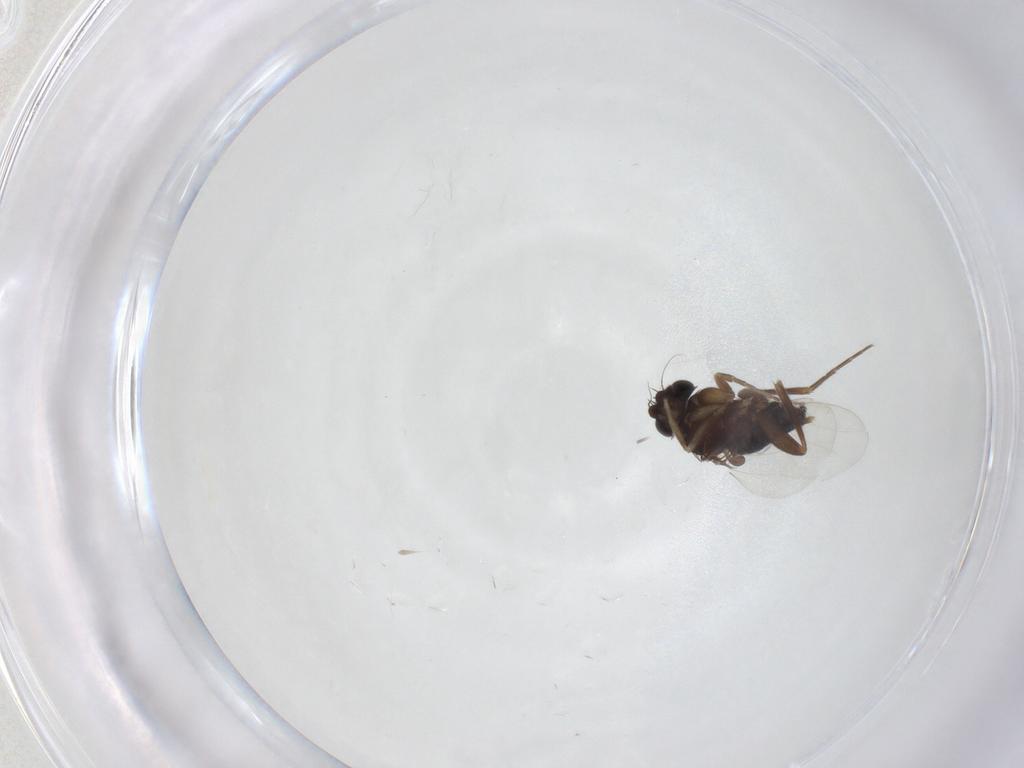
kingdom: Animalia
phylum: Arthropoda
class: Insecta
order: Diptera
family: Phoridae
